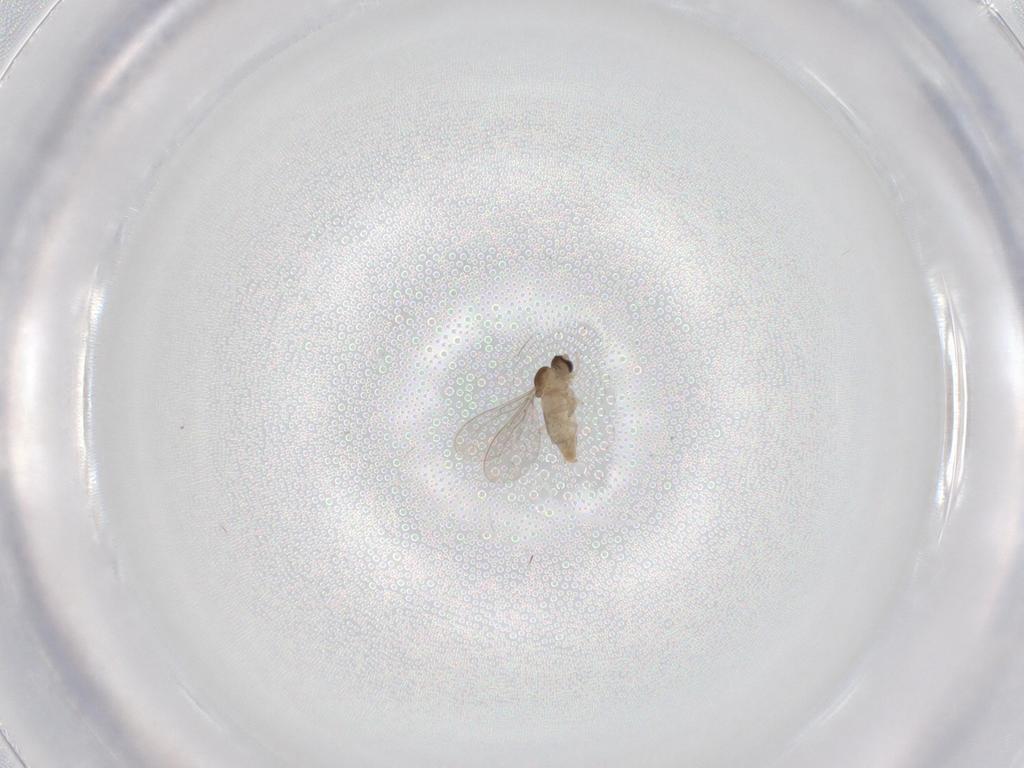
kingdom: Animalia
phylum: Arthropoda
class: Insecta
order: Diptera
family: Cecidomyiidae
